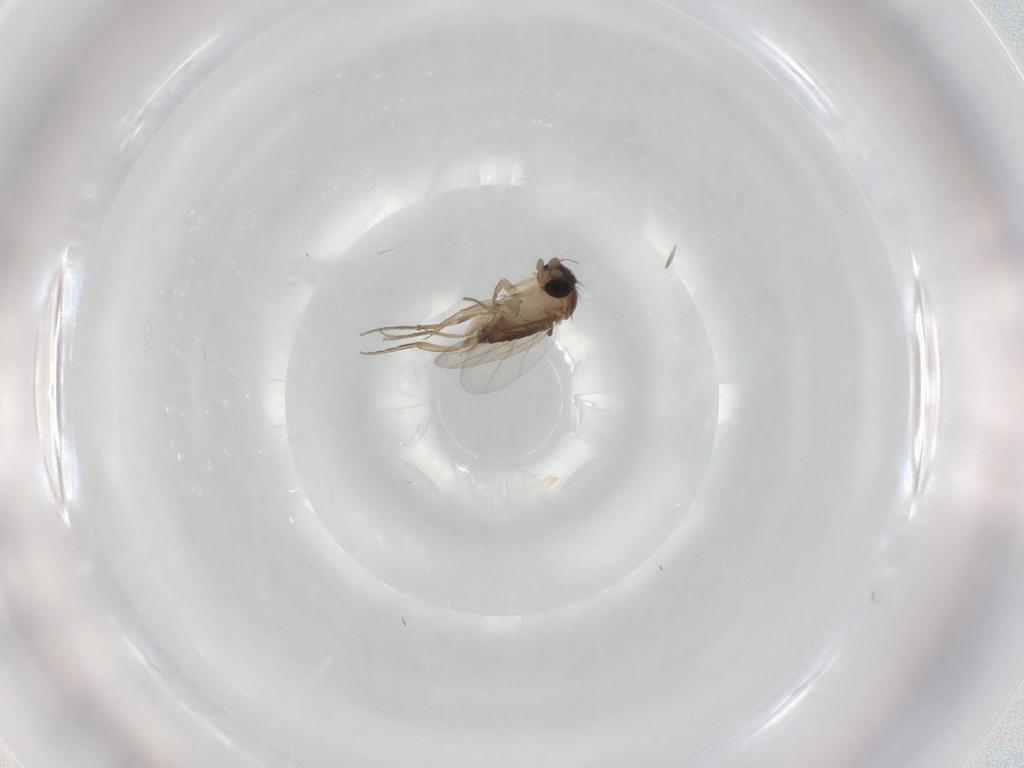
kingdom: Animalia
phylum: Arthropoda
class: Insecta
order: Diptera
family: Phoridae
